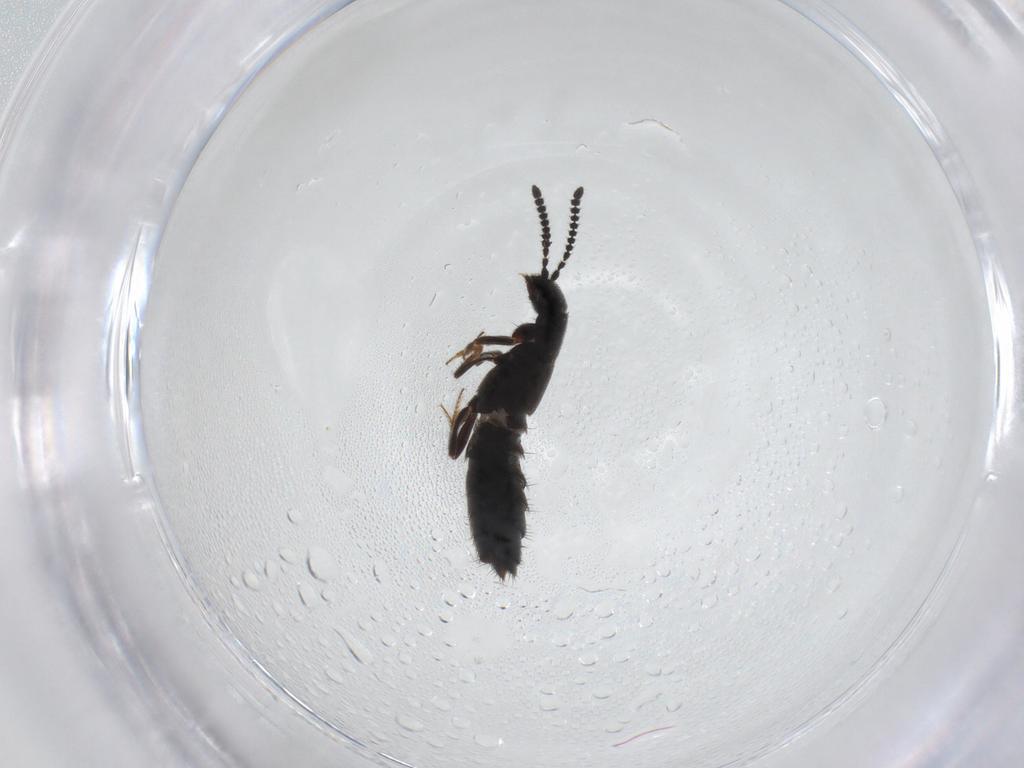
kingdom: Animalia
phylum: Arthropoda
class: Insecta
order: Coleoptera
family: Staphylinidae
